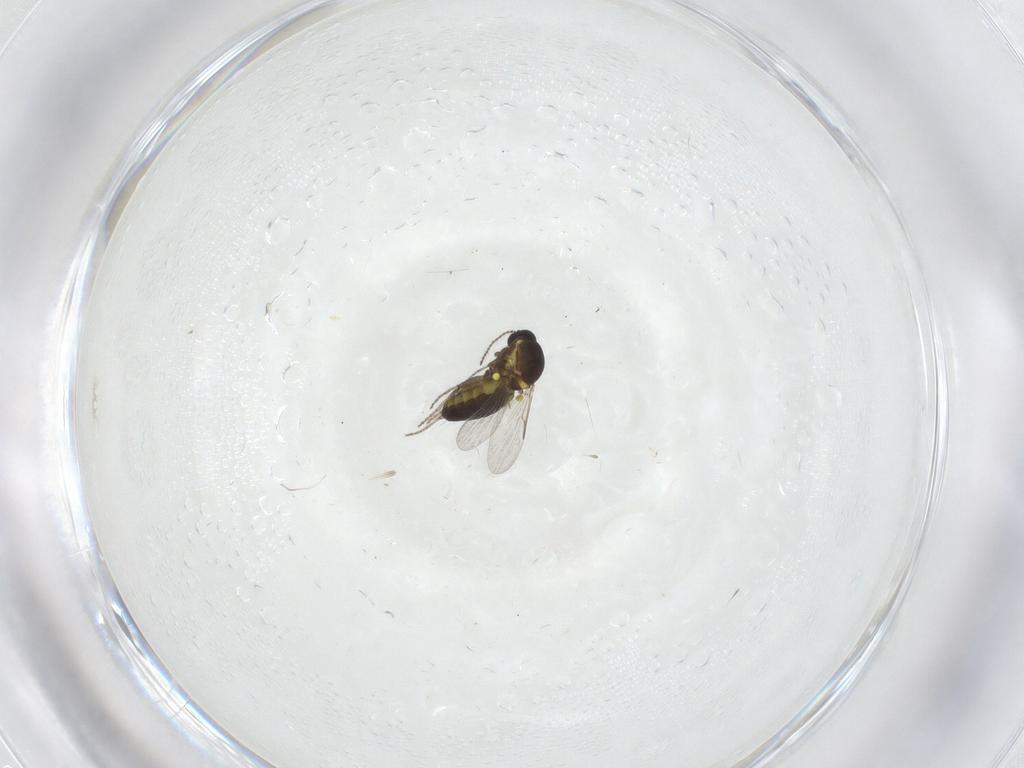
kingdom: Animalia
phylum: Arthropoda
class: Insecta
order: Diptera
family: Ceratopogonidae
